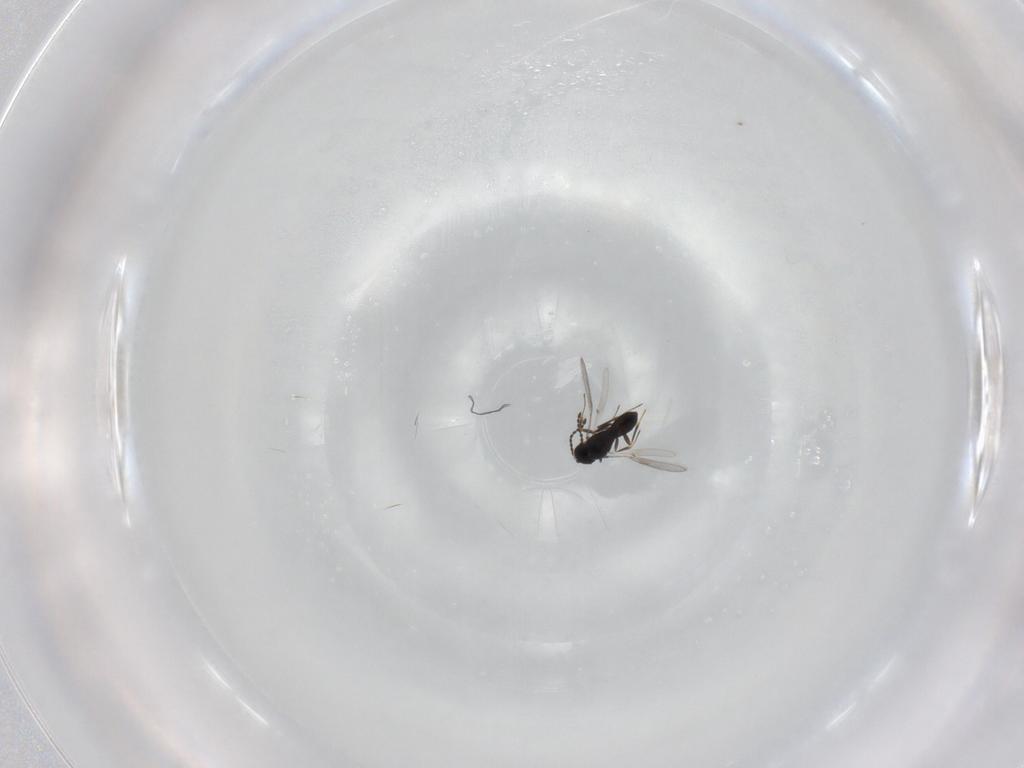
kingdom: Animalia
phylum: Arthropoda
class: Insecta
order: Hymenoptera
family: Scelionidae
